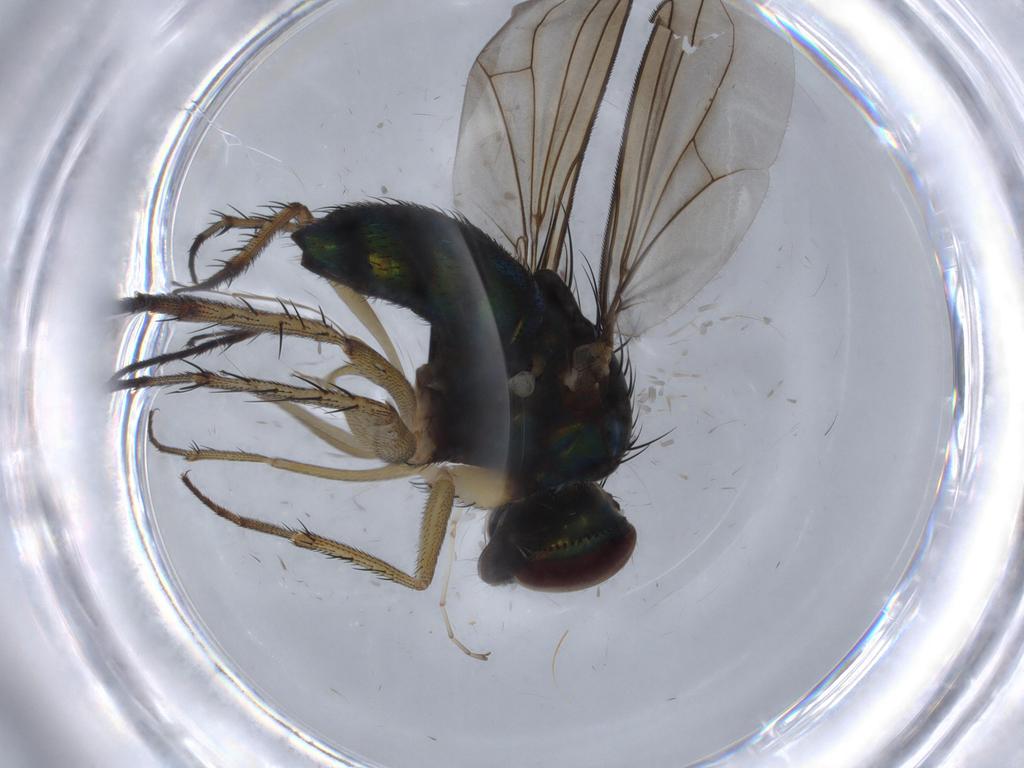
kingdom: Animalia
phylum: Arthropoda
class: Insecta
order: Diptera
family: Dolichopodidae
